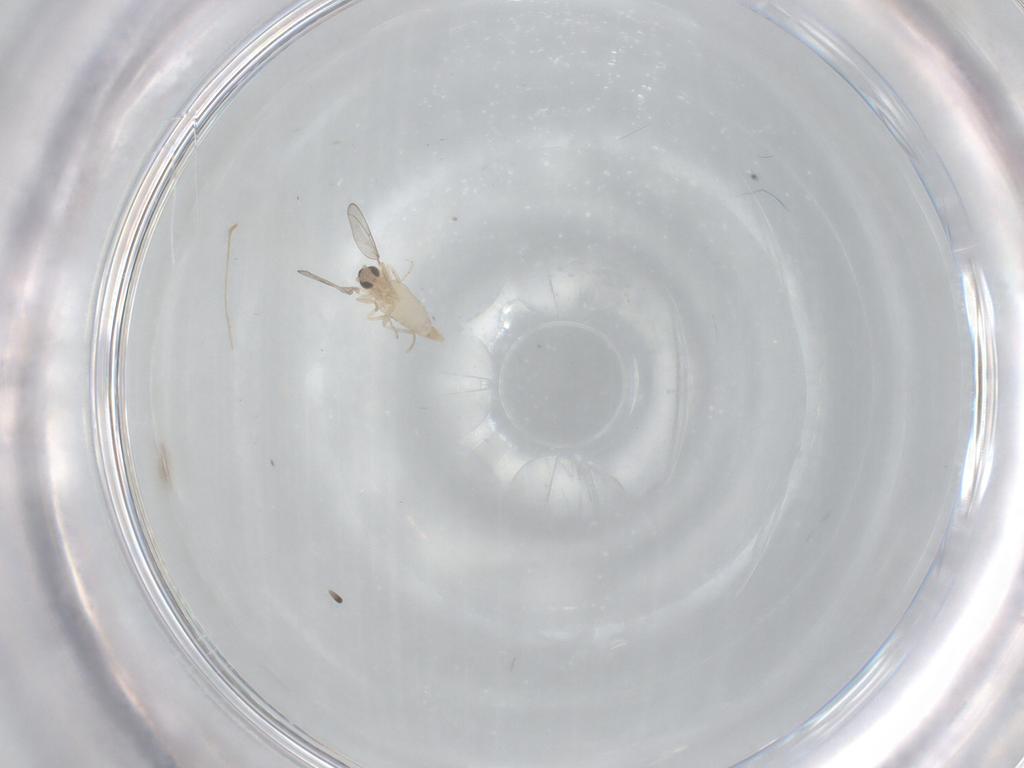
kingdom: Animalia
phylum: Arthropoda
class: Insecta
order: Diptera
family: Cecidomyiidae
